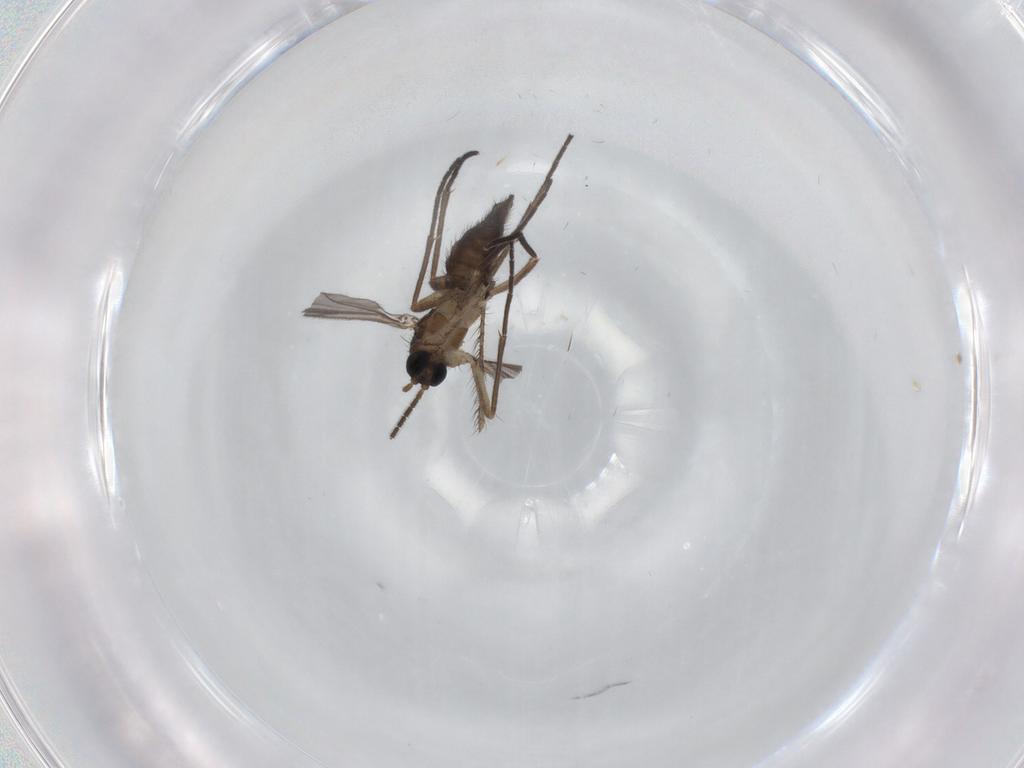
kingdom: Animalia
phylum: Arthropoda
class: Insecta
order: Diptera
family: Sciaridae
